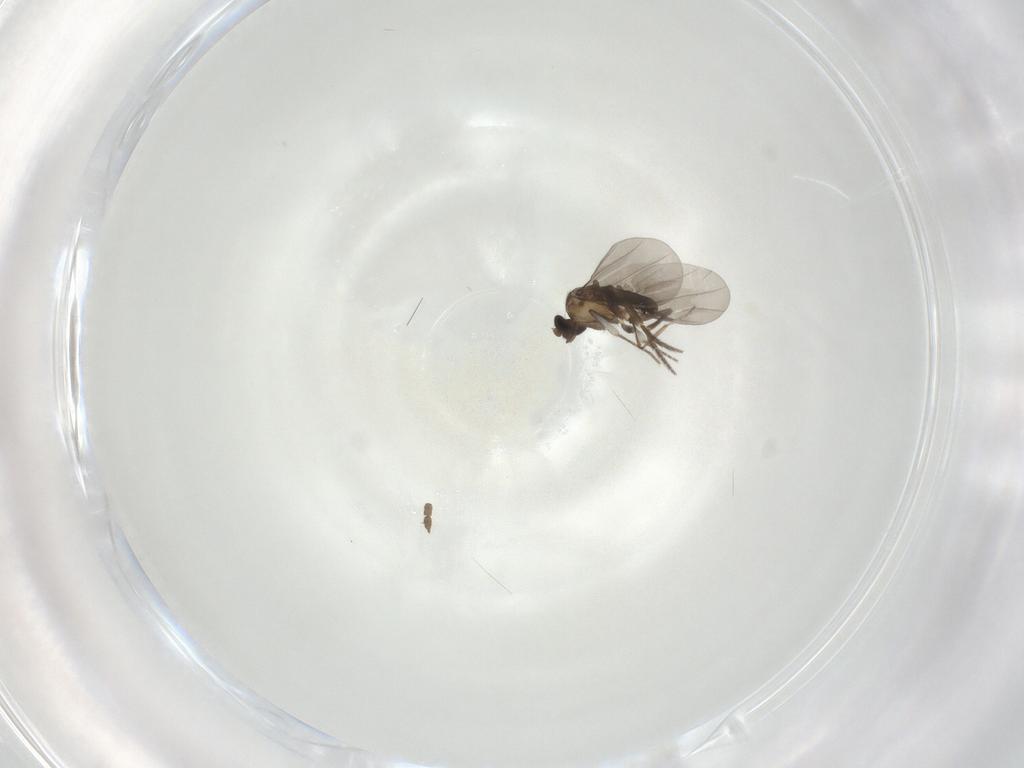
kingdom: Animalia
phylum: Arthropoda
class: Insecta
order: Diptera
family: Phoridae
